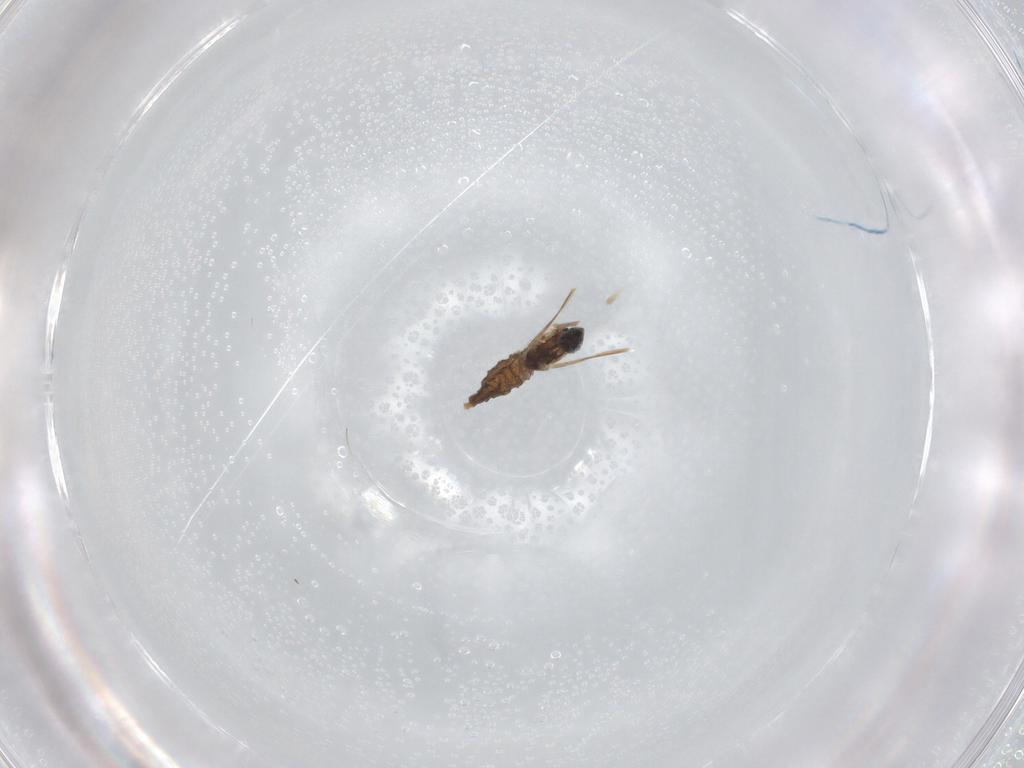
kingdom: Animalia
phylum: Arthropoda
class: Insecta
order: Diptera
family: Cecidomyiidae
